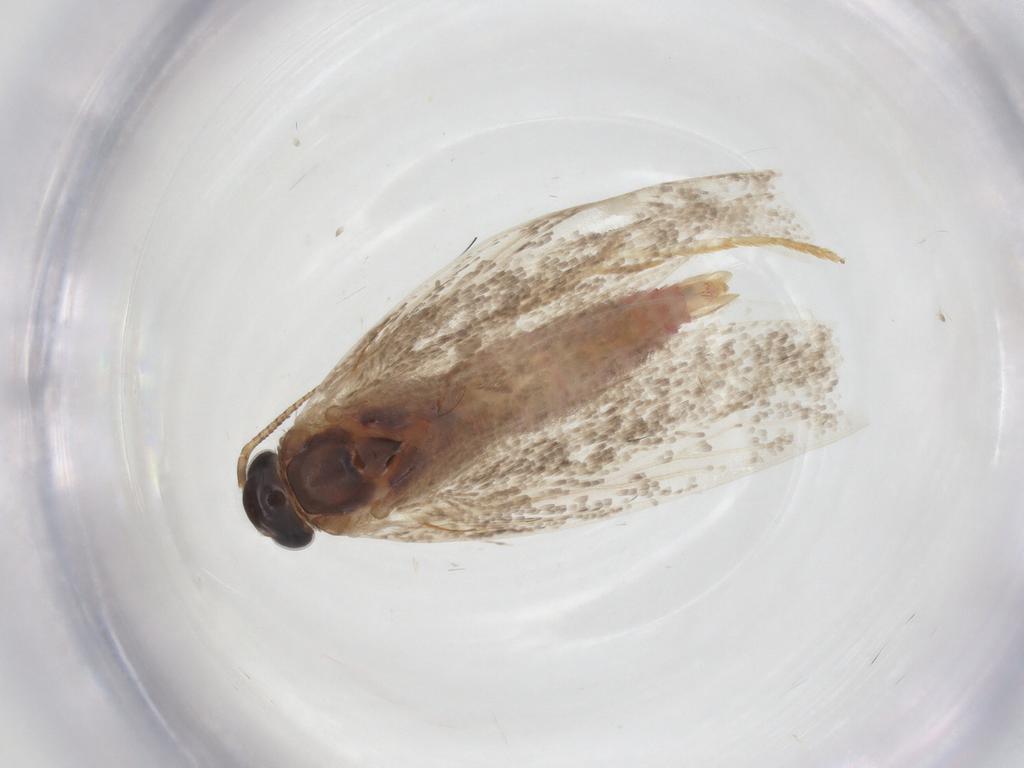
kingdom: Animalia
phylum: Arthropoda
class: Insecta
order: Lepidoptera
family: Autostichidae
